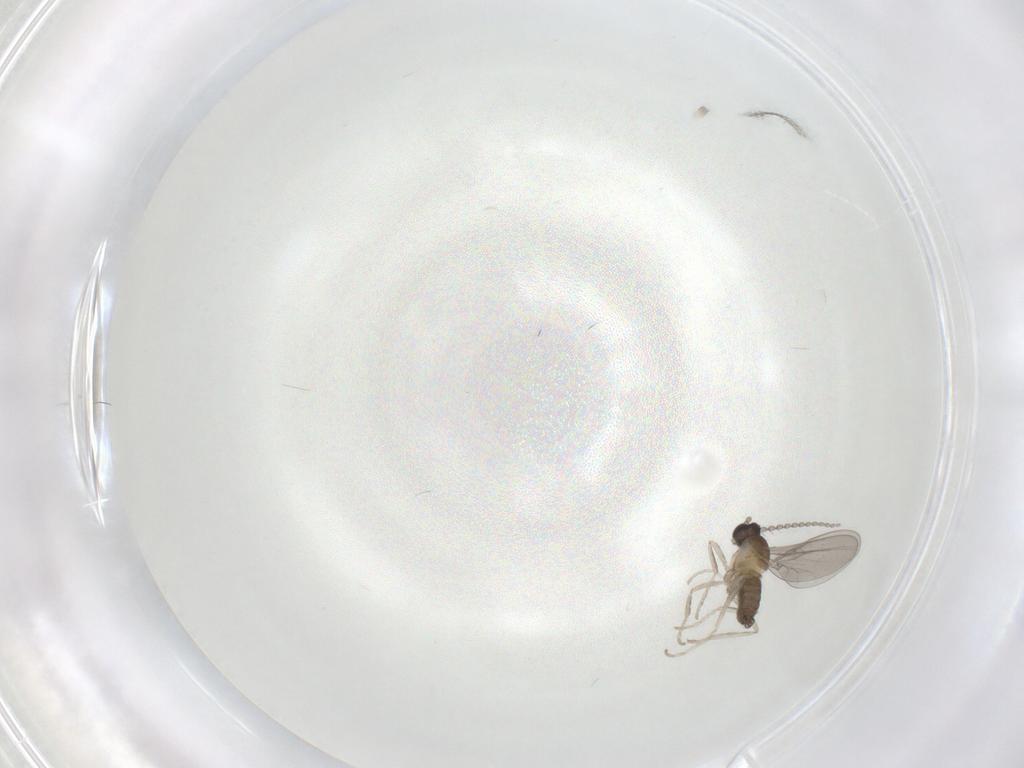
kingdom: Animalia
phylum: Arthropoda
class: Insecta
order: Diptera
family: Cecidomyiidae
